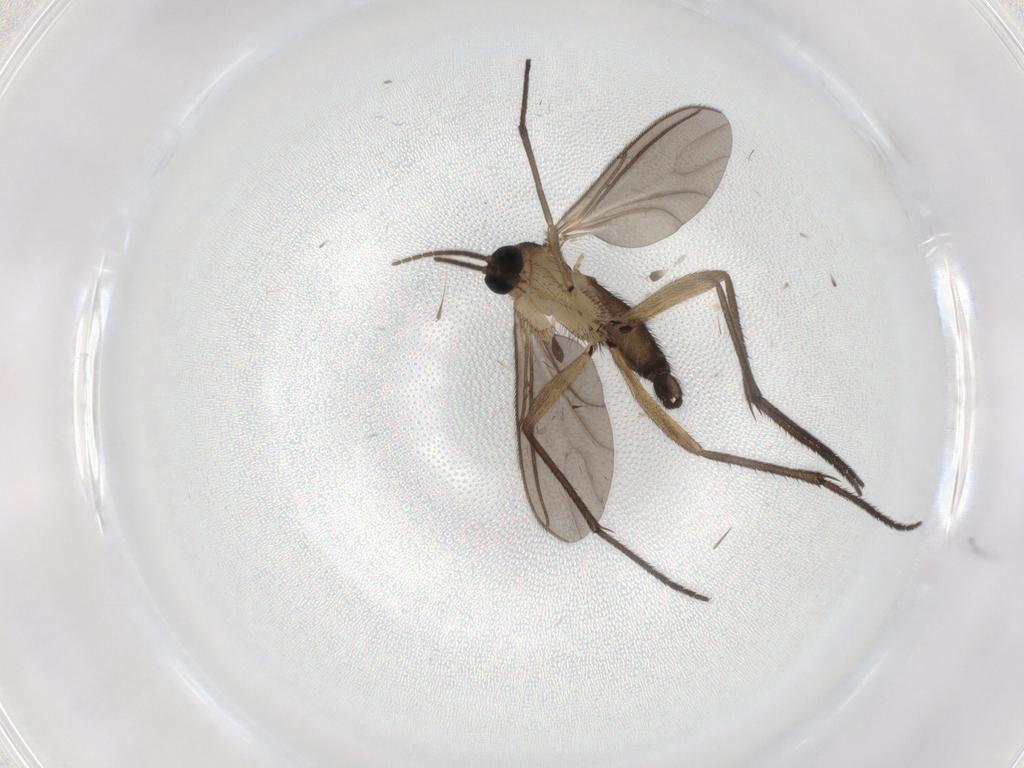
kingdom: Animalia
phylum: Arthropoda
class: Insecta
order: Diptera
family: Sciaridae
